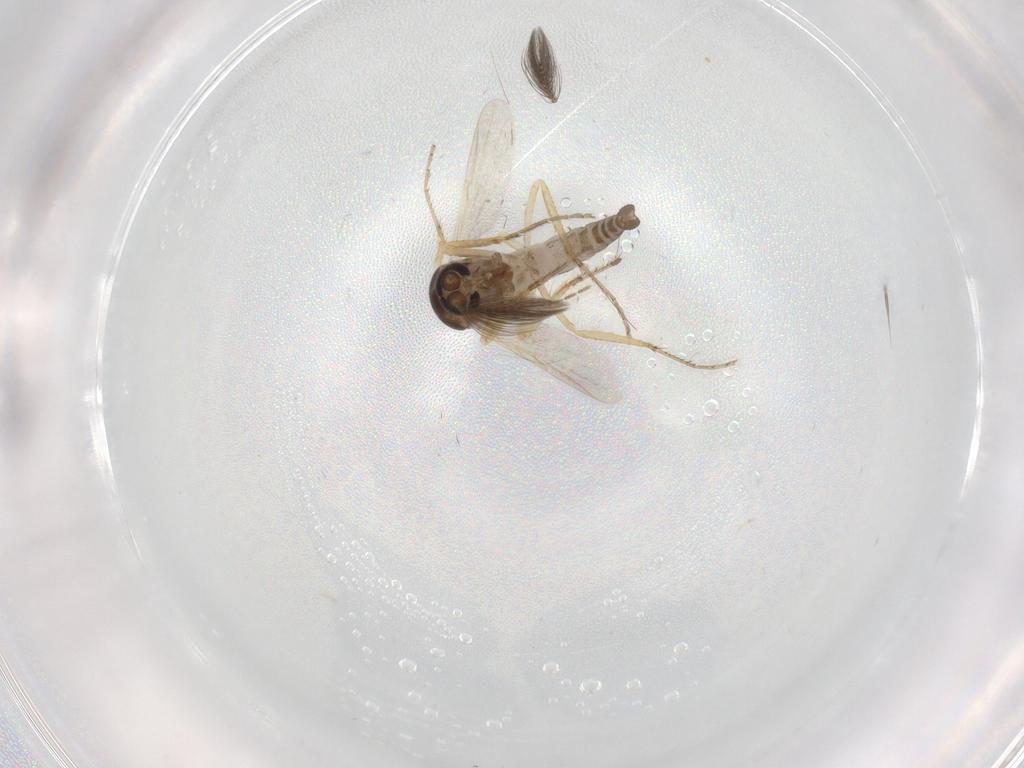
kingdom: Animalia
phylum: Arthropoda
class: Insecta
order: Diptera
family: Ceratopogonidae
